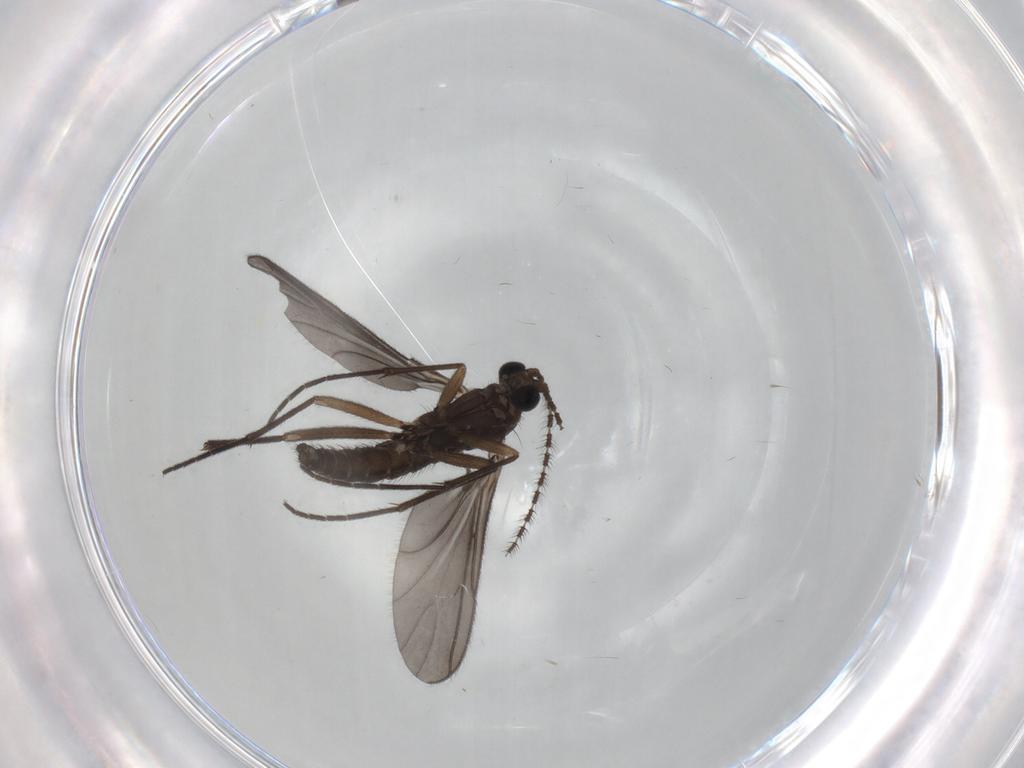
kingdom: Animalia
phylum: Arthropoda
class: Insecta
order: Diptera
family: Sciaridae
